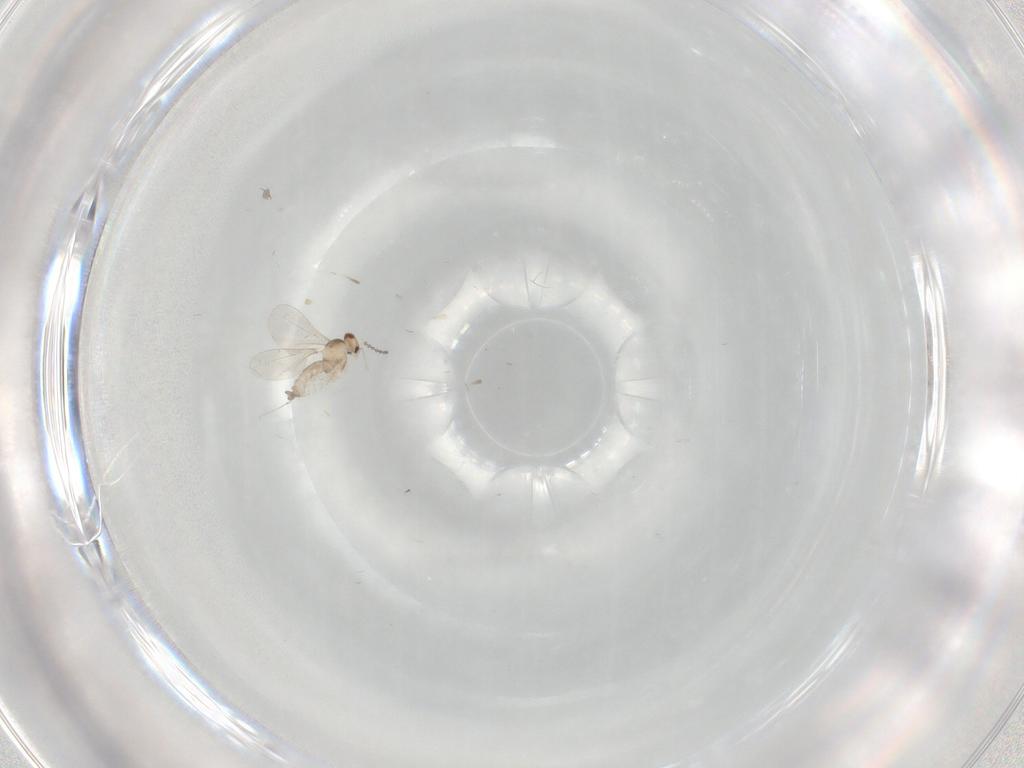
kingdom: Animalia
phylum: Arthropoda
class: Insecta
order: Diptera
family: Cecidomyiidae
